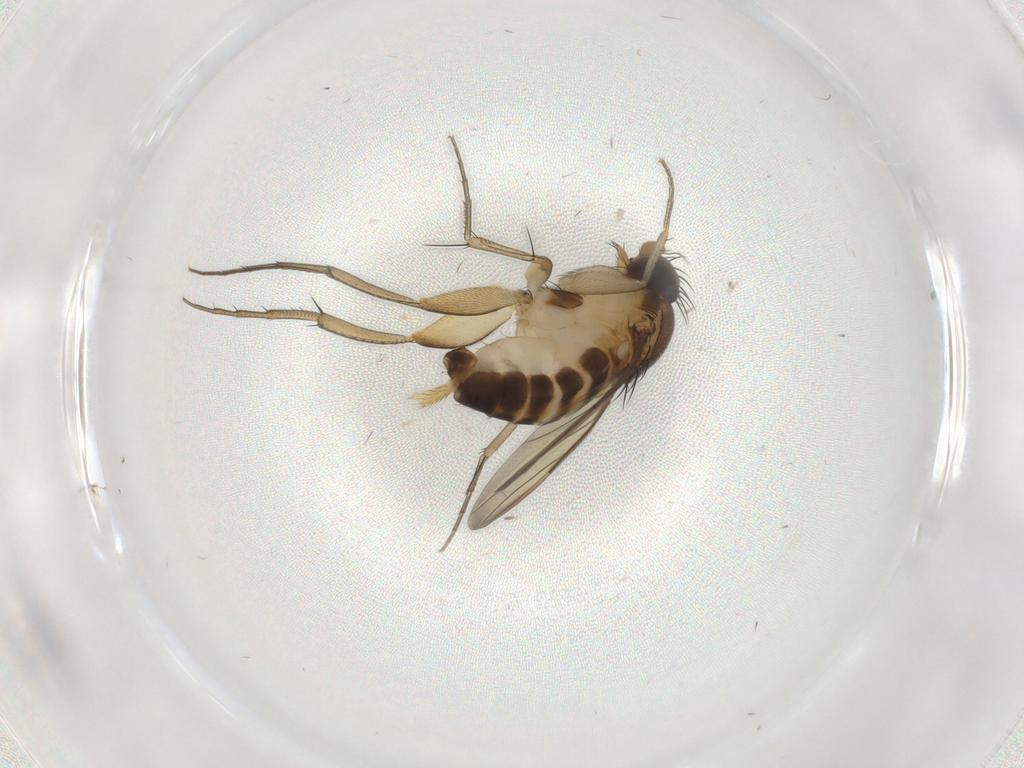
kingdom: Animalia
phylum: Arthropoda
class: Insecta
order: Diptera
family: Phoridae
